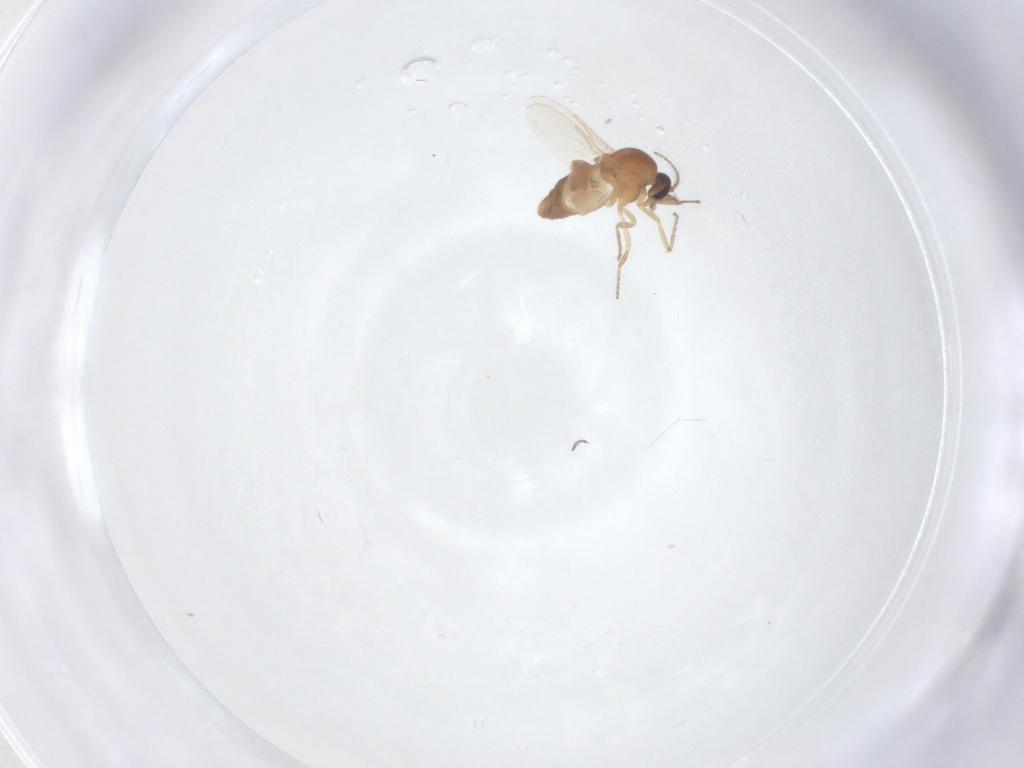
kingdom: Animalia
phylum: Arthropoda
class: Insecta
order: Diptera
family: Ceratopogonidae
